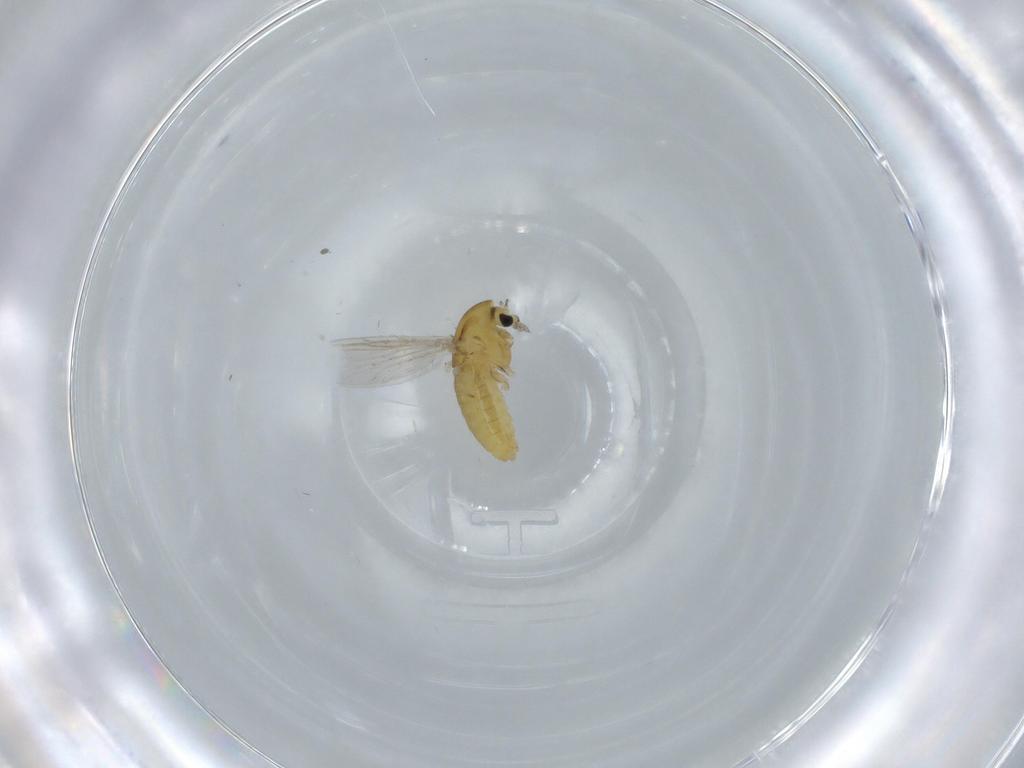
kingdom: Animalia
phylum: Arthropoda
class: Insecta
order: Diptera
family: Chironomidae
